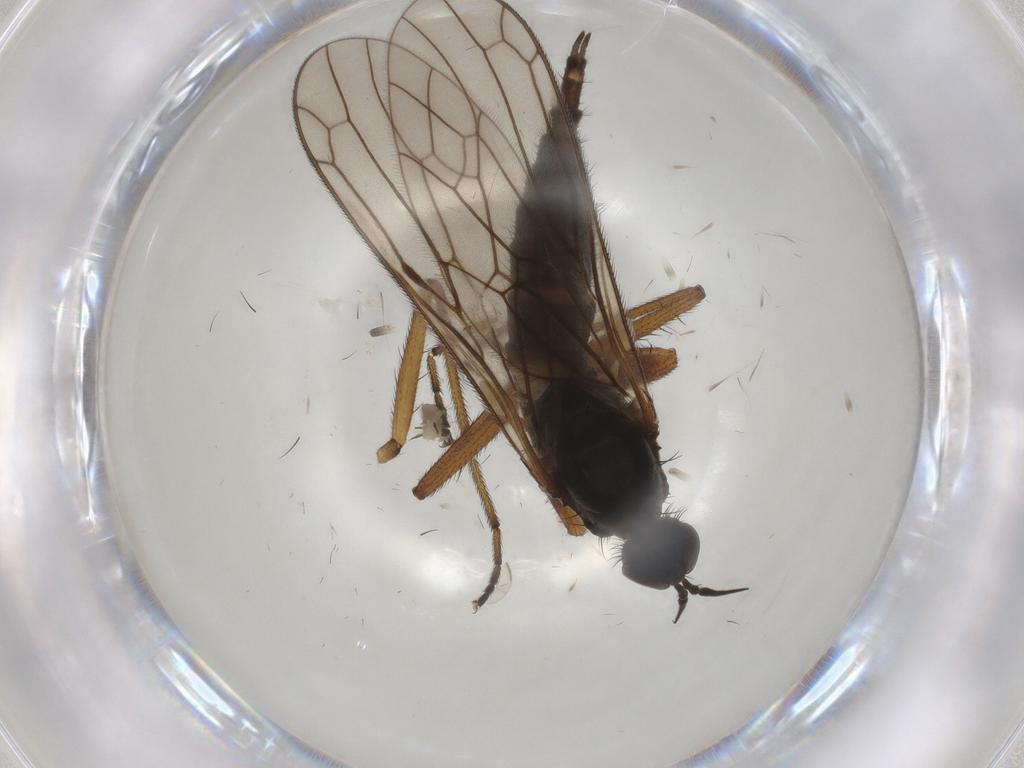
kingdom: Animalia
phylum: Arthropoda
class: Insecta
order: Diptera
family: Chironomidae
